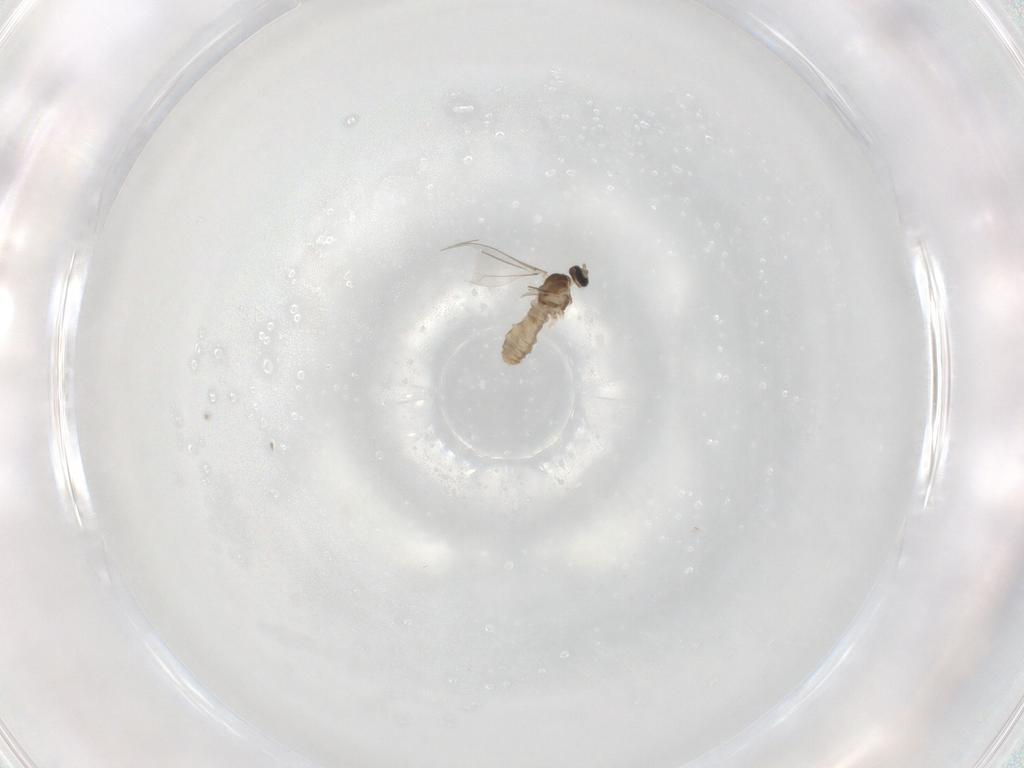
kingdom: Animalia
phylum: Arthropoda
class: Insecta
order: Diptera
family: Cecidomyiidae
